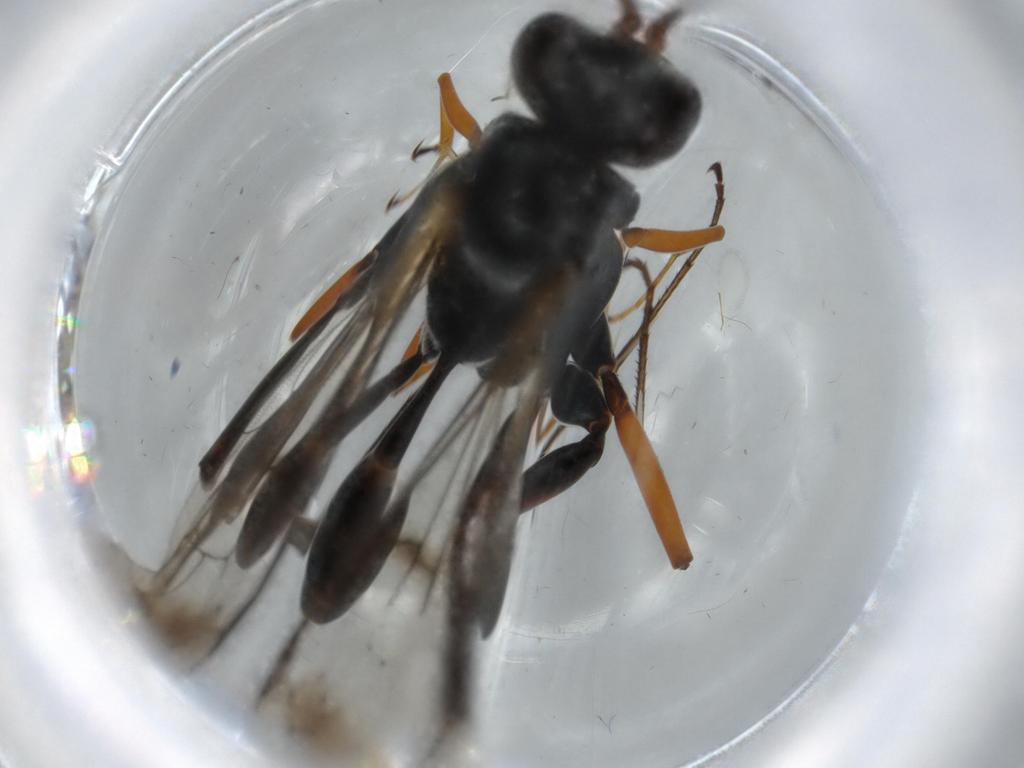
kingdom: Animalia
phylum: Arthropoda
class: Insecta
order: Hymenoptera
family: Pompilidae
